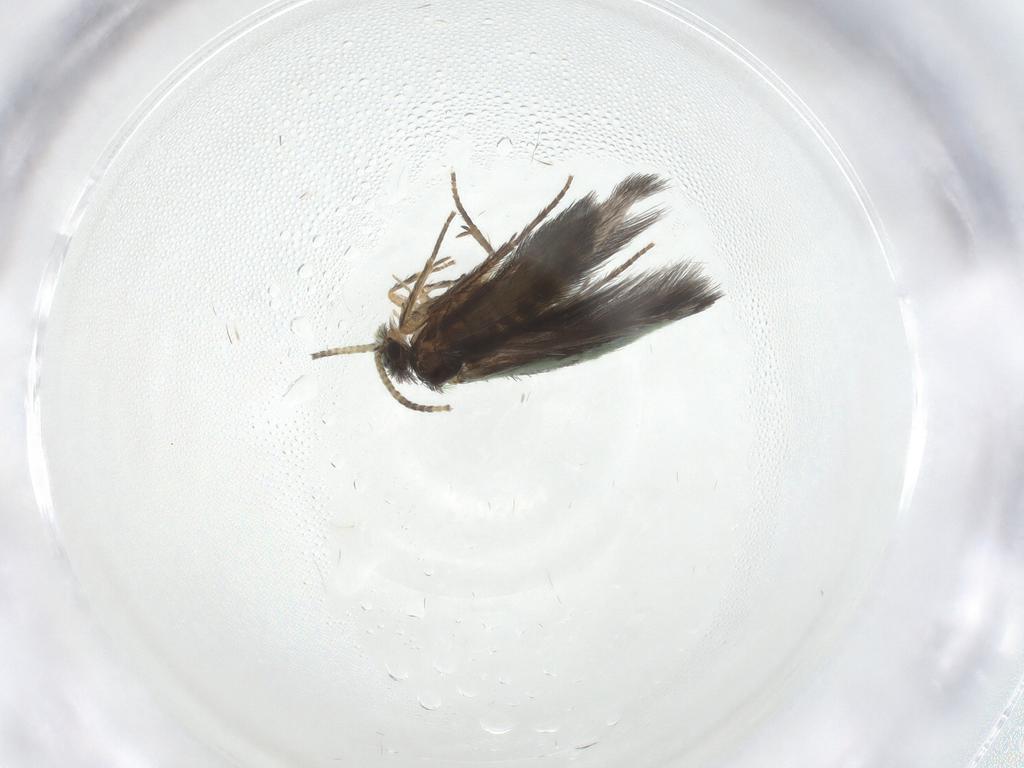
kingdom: Animalia
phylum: Arthropoda
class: Insecta
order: Trichoptera
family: Hydroptilidae
